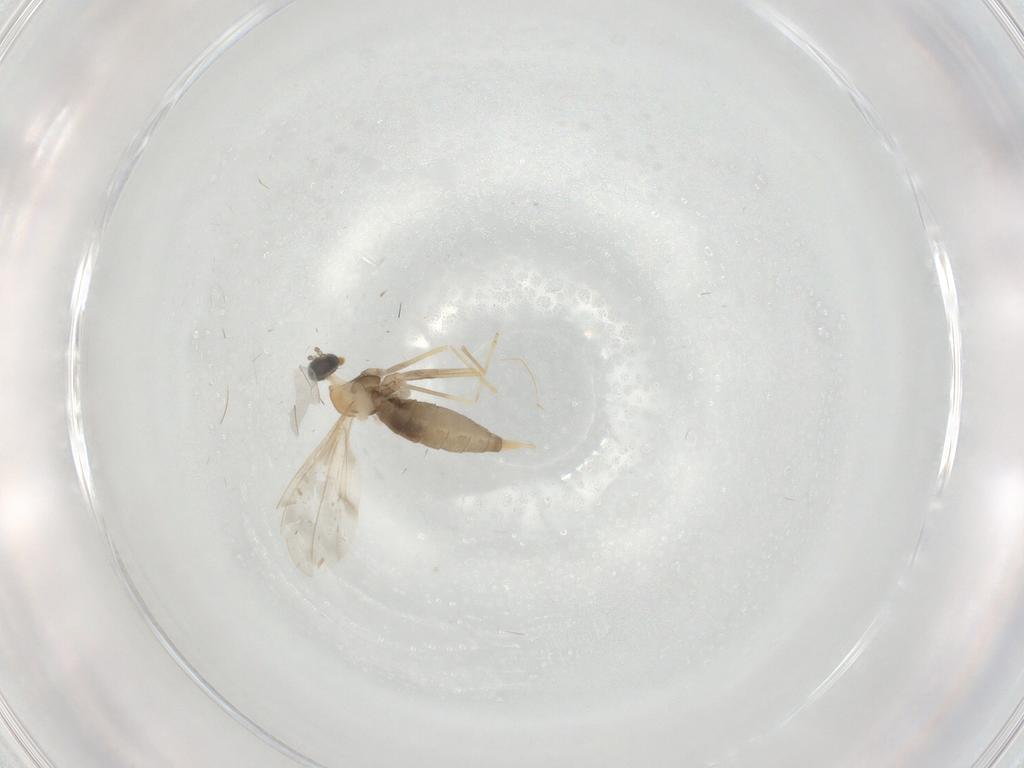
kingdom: Animalia
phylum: Arthropoda
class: Insecta
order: Diptera
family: Cecidomyiidae
